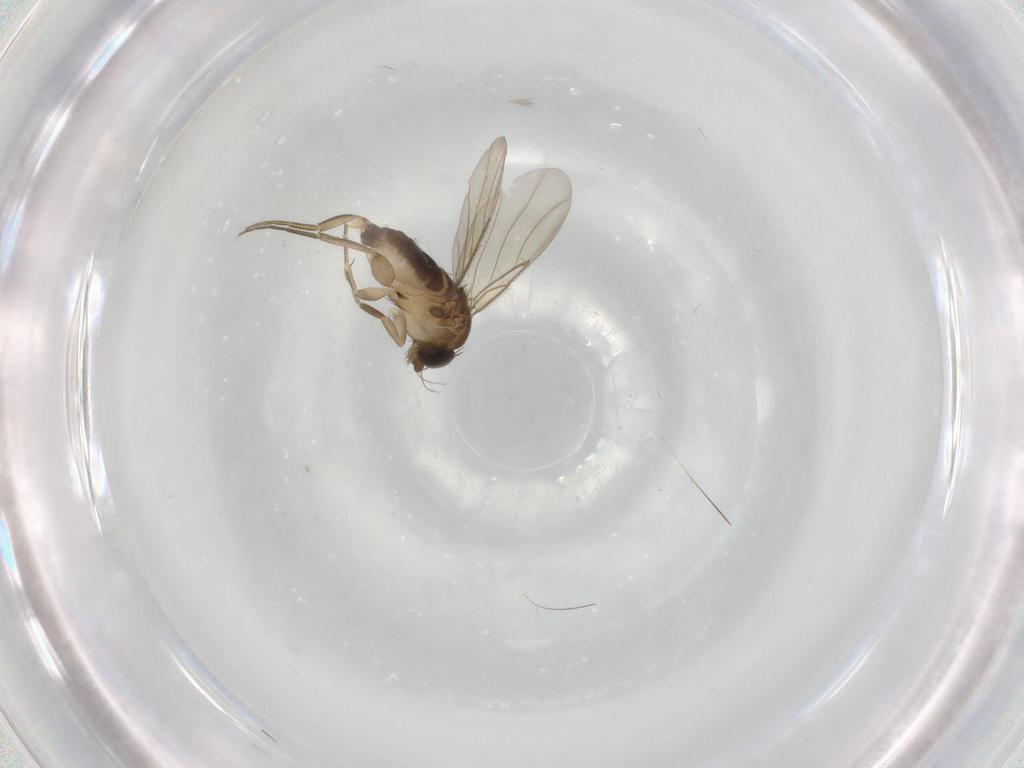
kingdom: Animalia
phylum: Arthropoda
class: Insecta
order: Diptera
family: Phoridae
